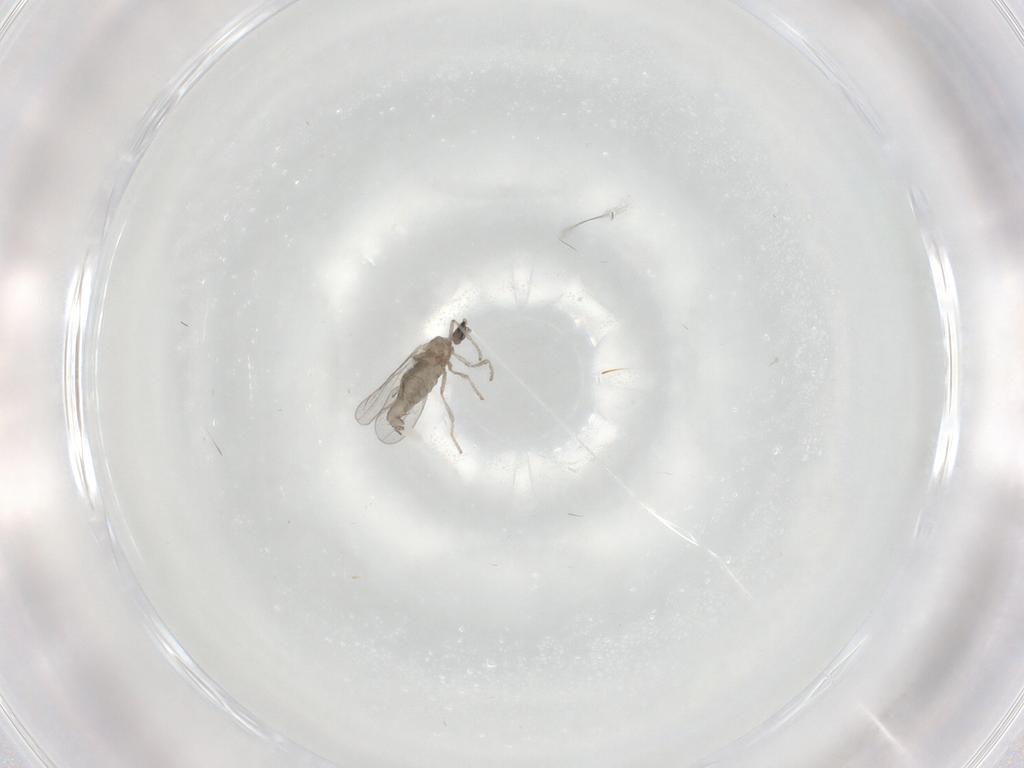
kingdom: Animalia
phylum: Arthropoda
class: Insecta
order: Diptera
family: Cecidomyiidae
